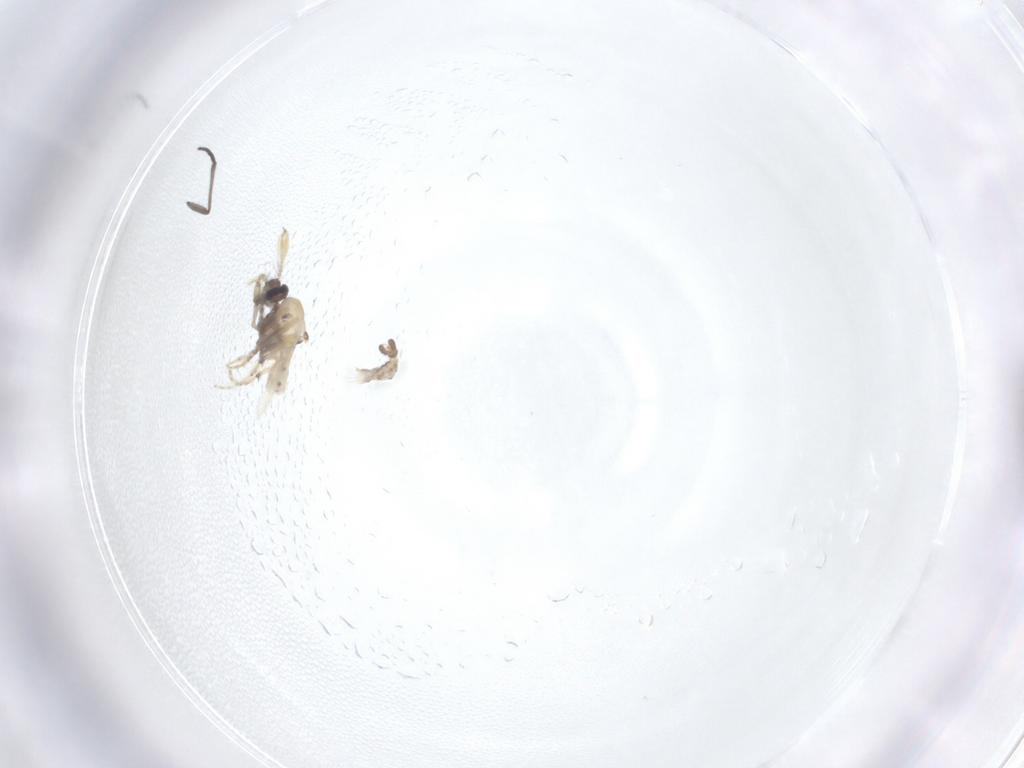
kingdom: Animalia
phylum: Arthropoda
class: Insecta
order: Diptera
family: Ceratopogonidae
